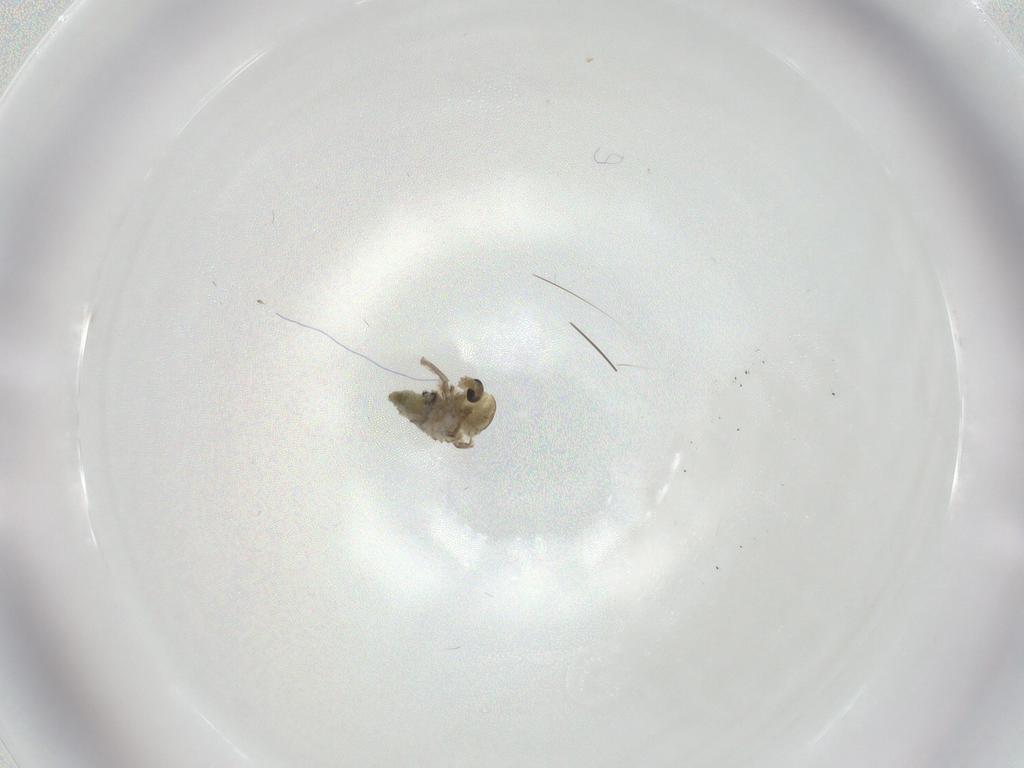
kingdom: Animalia
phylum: Arthropoda
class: Insecta
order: Diptera
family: Chironomidae
